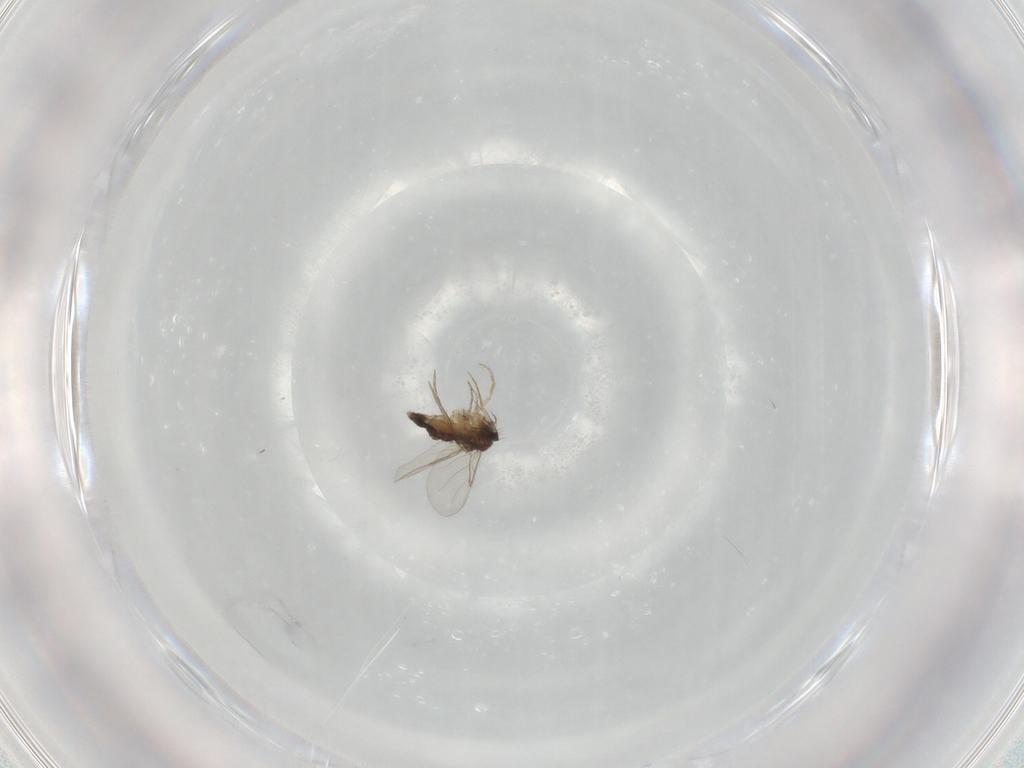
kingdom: Animalia
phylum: Arthropoda
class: Insecta
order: Diptera
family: Phoridae
